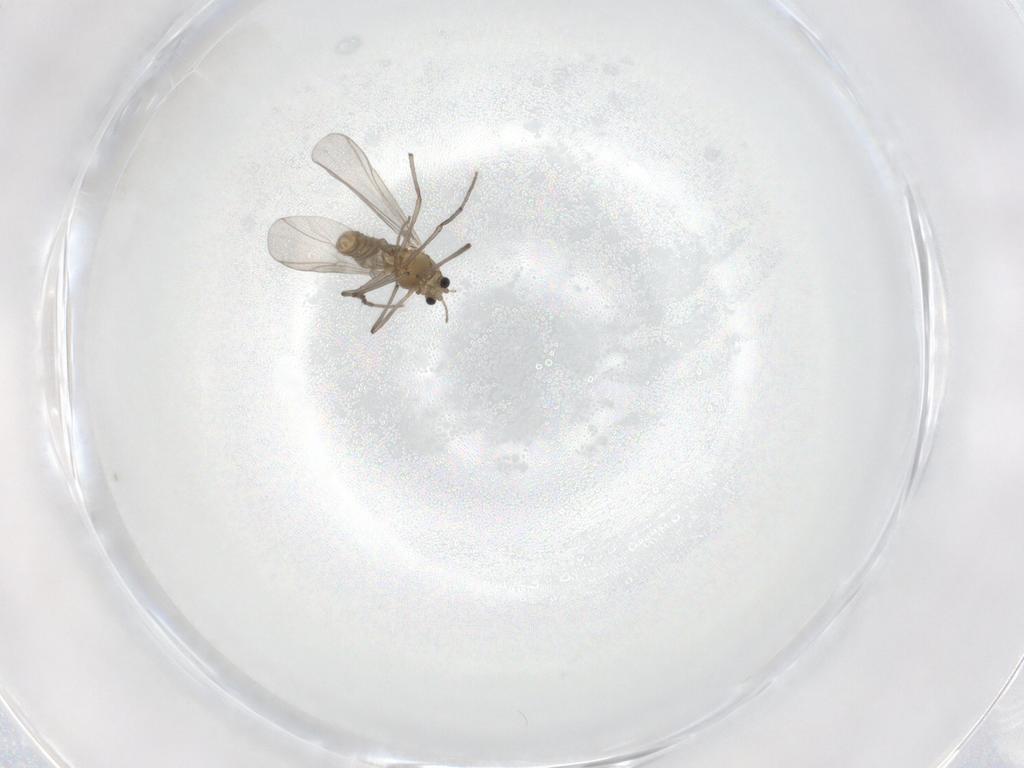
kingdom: Animalia
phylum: Arthropoda
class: Insecta
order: Diptera
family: Chironomidae
